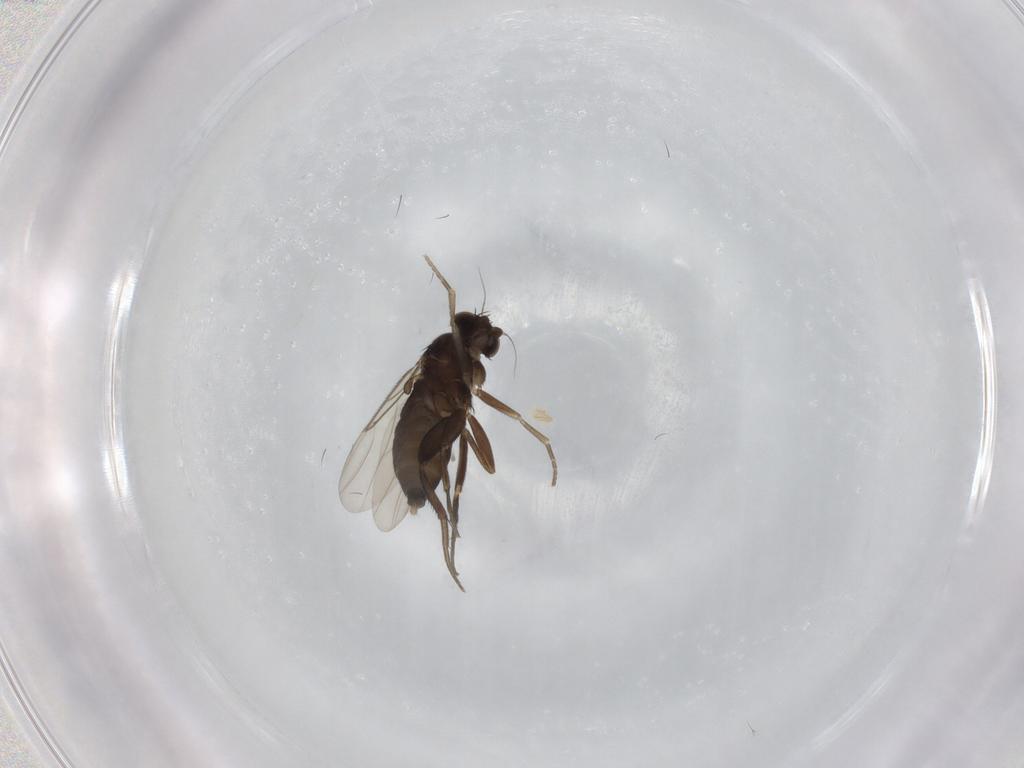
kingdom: Animalia
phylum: Arthropoda
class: Insecta
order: Diptera
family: Phoridae
